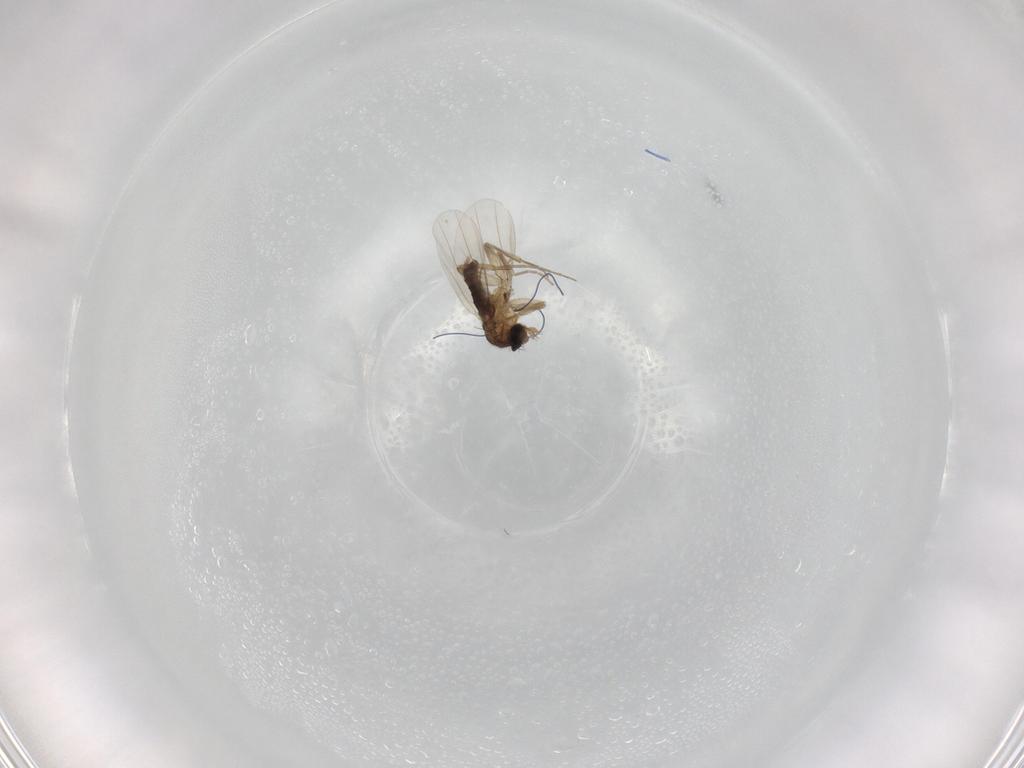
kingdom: Animalia
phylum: Arthropoda
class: Insecta
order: Diptera
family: Phoridae
